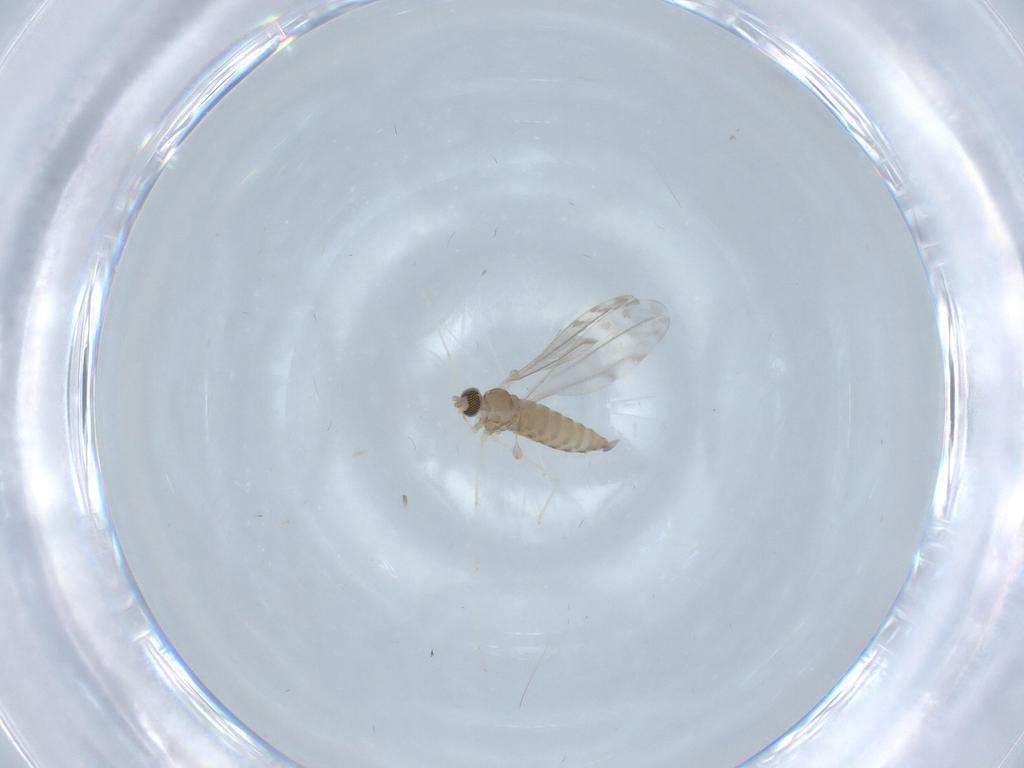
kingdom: Animalia
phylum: Arthropoda
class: Insecta
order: Diptera
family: Cecidomyiidae
